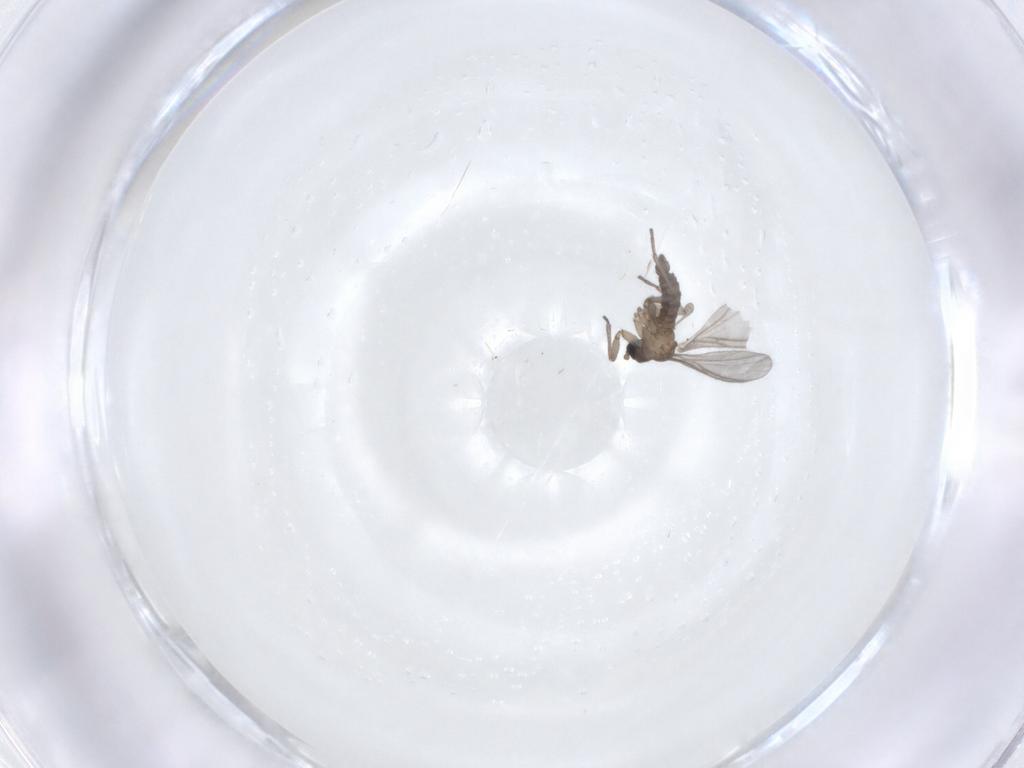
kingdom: Animalia
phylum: Arthropoda
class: Insecta
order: Diptera
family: Sciaridae
